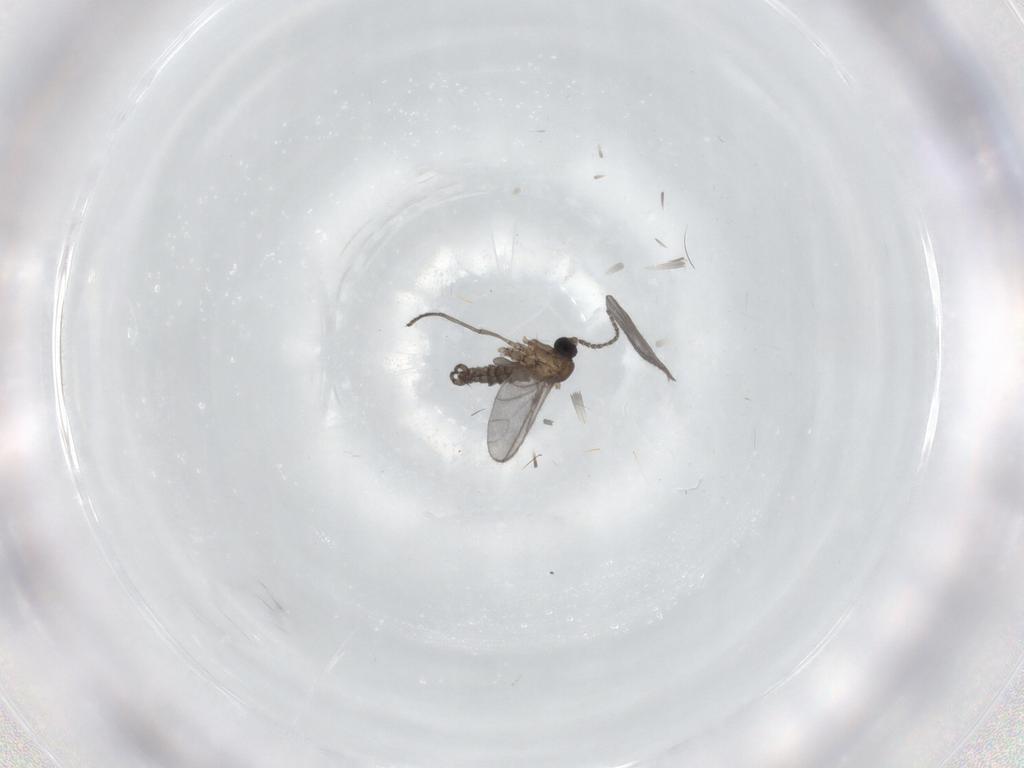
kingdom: Animalia
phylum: Arthropoda
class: Insecta
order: Diptera
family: Sciaridae
